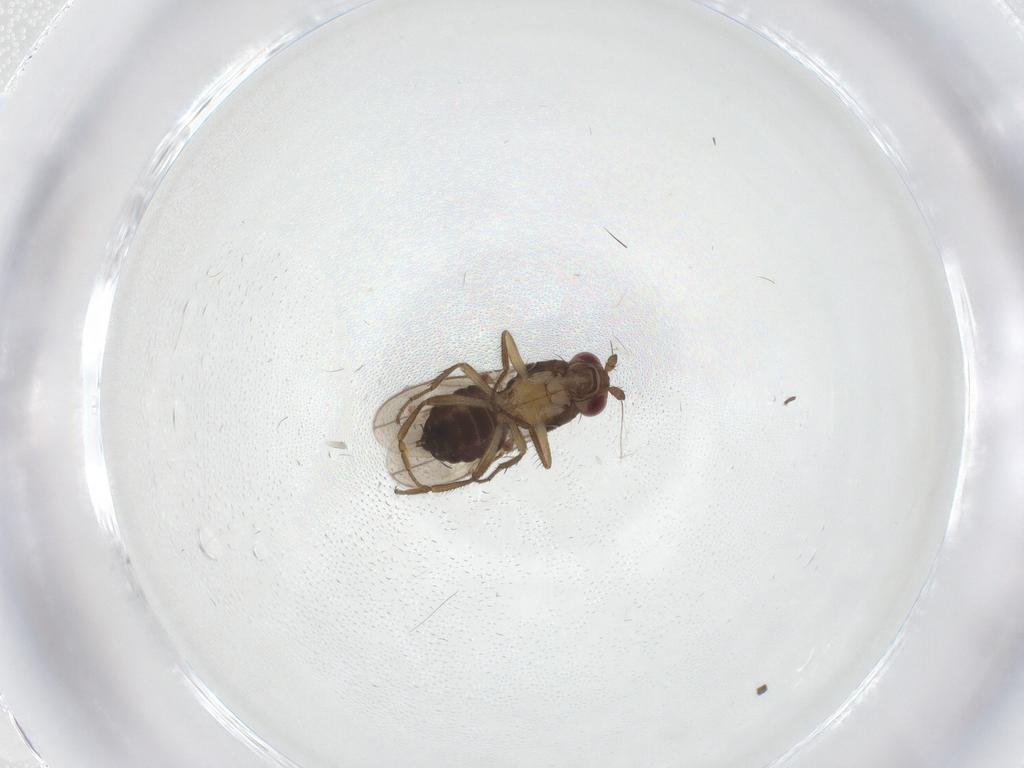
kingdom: Animalia
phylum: Arthropoda
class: Insecta
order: Diptera
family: Sphaeroceridae
